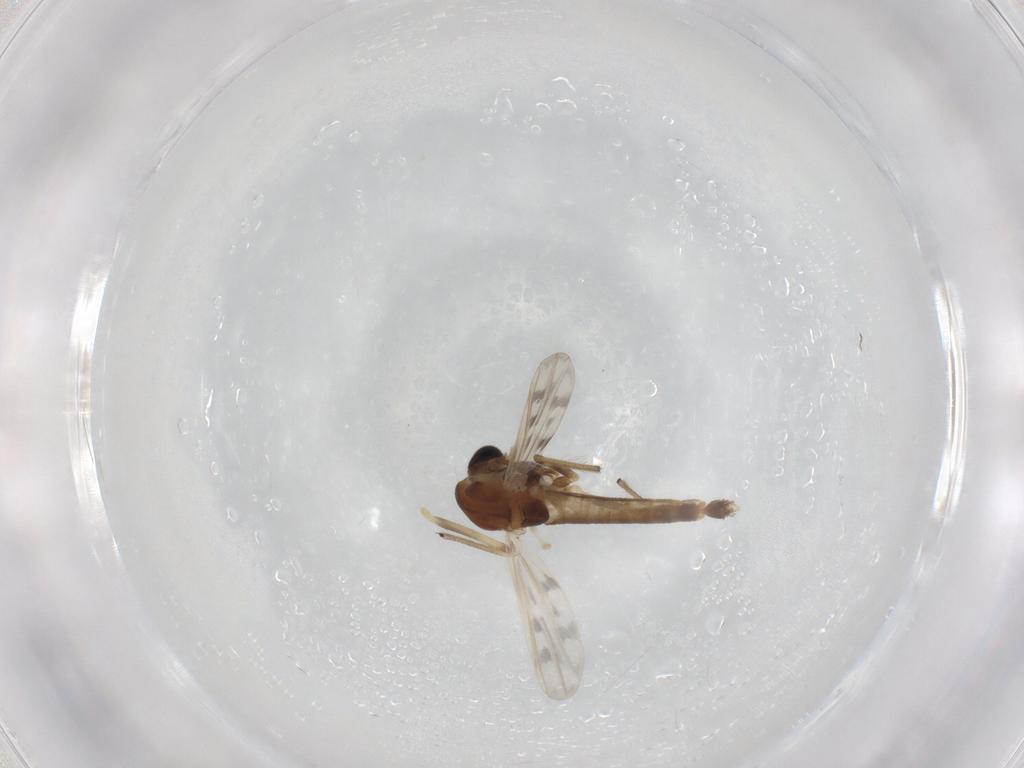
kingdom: Animalia
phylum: Arthropoda
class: Insecta
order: Diptera
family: Chironomidae
